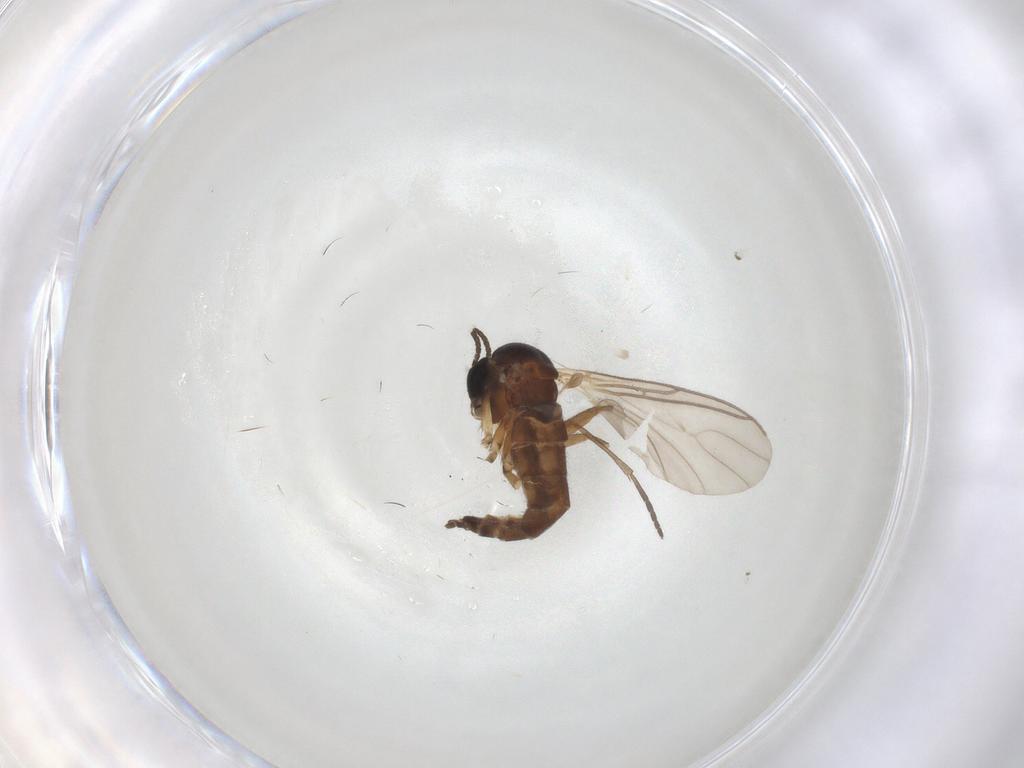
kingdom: Animalia
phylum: Arthropoda
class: Insecta
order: Diptera
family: Sciaridae
